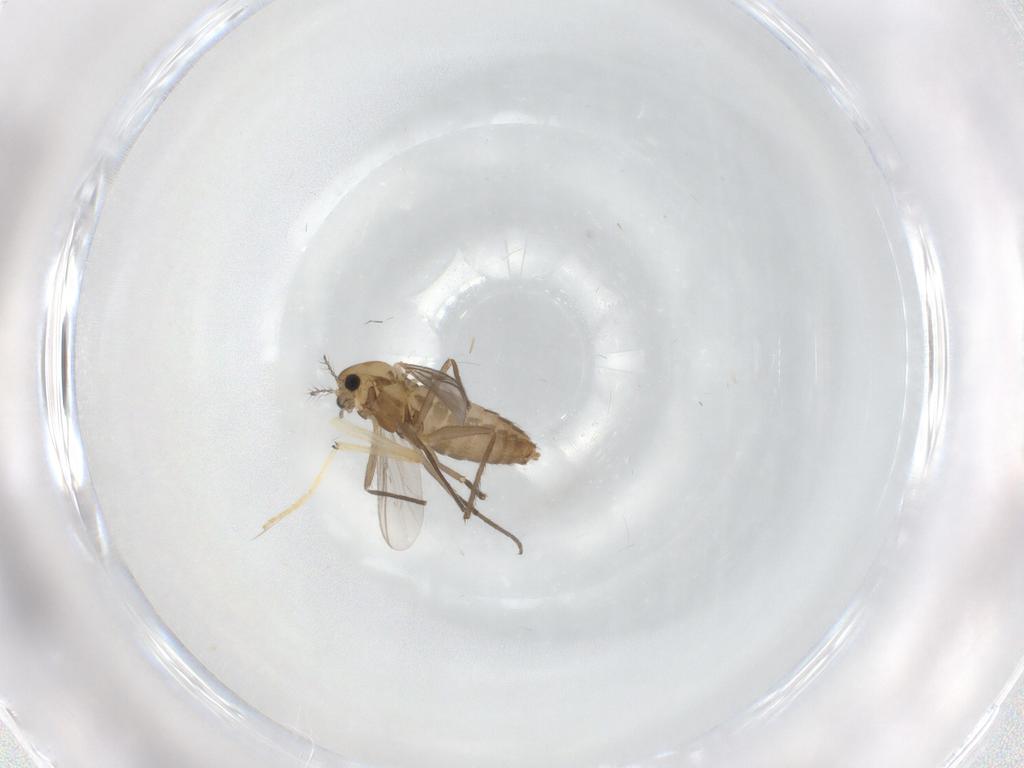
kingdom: Animalia
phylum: Arthropoda
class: Insecta
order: Diptera
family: Chironomidae
